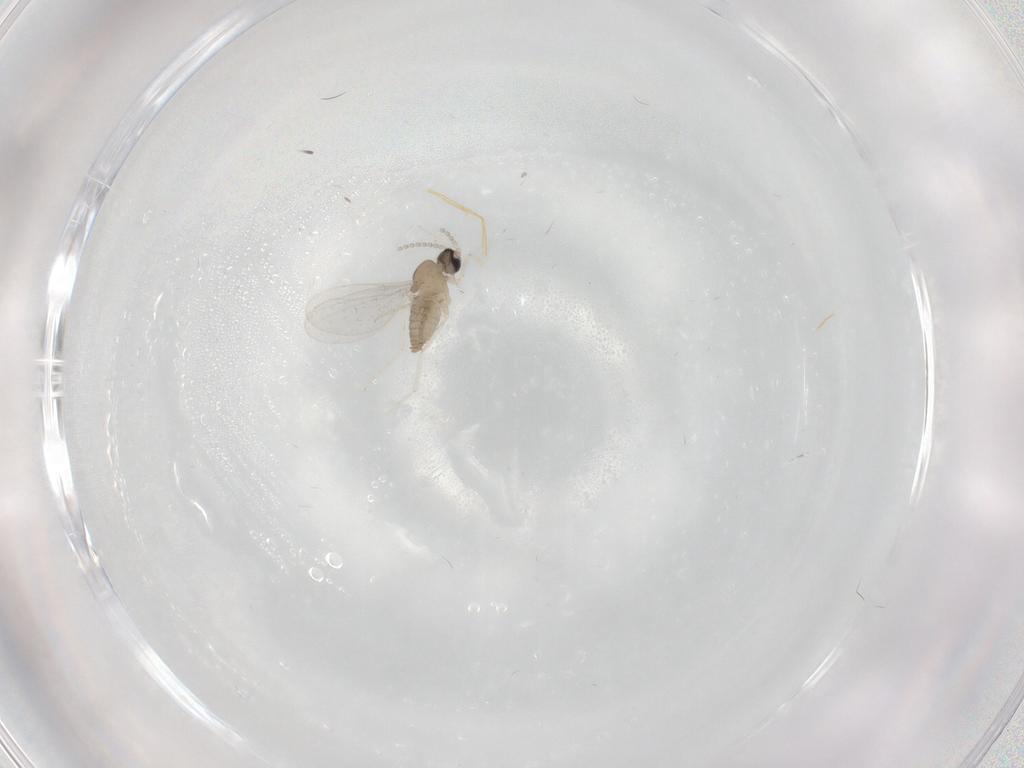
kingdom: Animalia
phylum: Arthropoda
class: Insecta
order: Diptera
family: Cecidomyiidae
